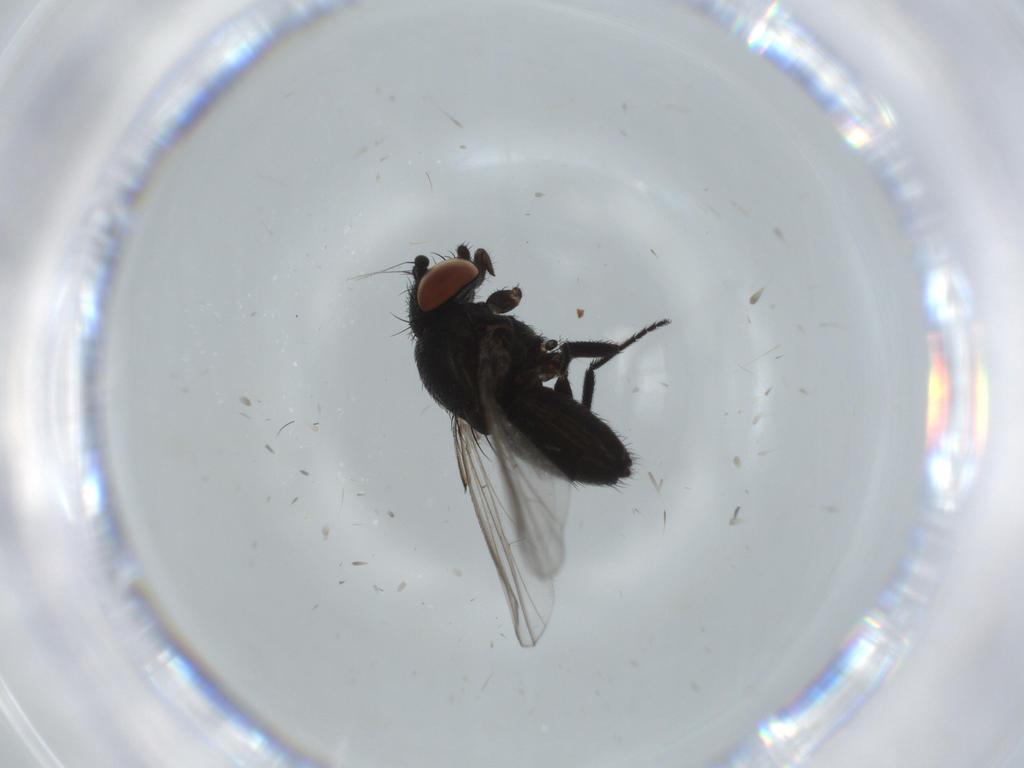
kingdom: Animalia
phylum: Arthropoda
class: Insecta
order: Diptera
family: Milichiidae
